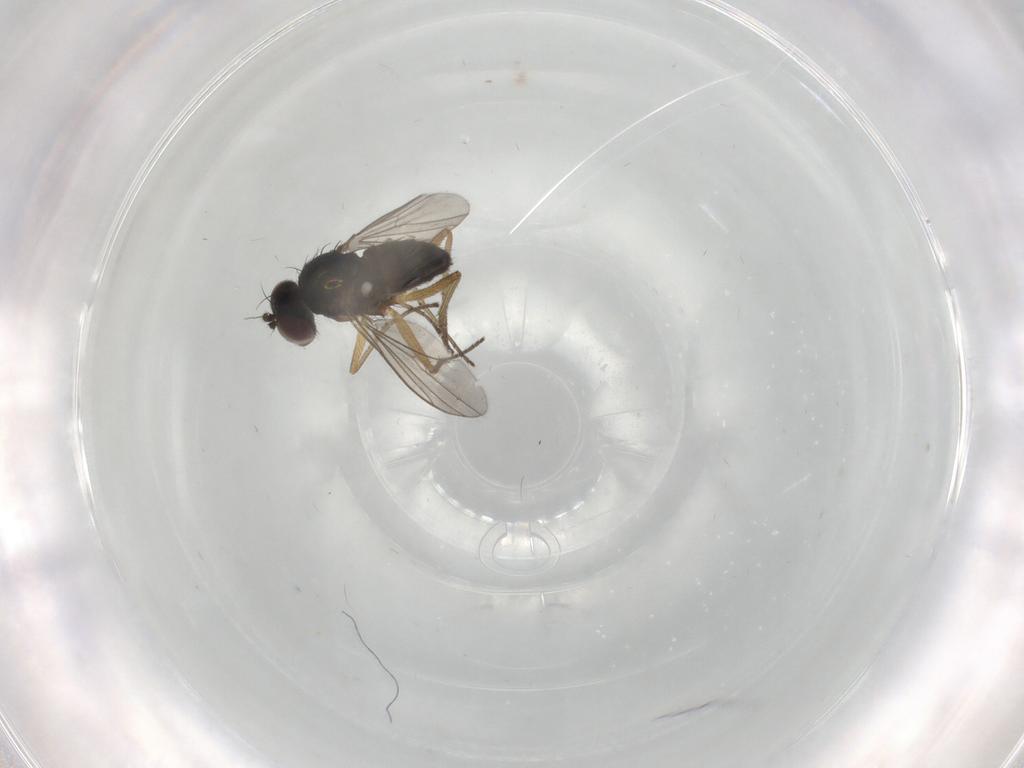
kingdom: Animalia
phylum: Arthropoda
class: Insecta
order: Diptera
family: Dolichopodidae
